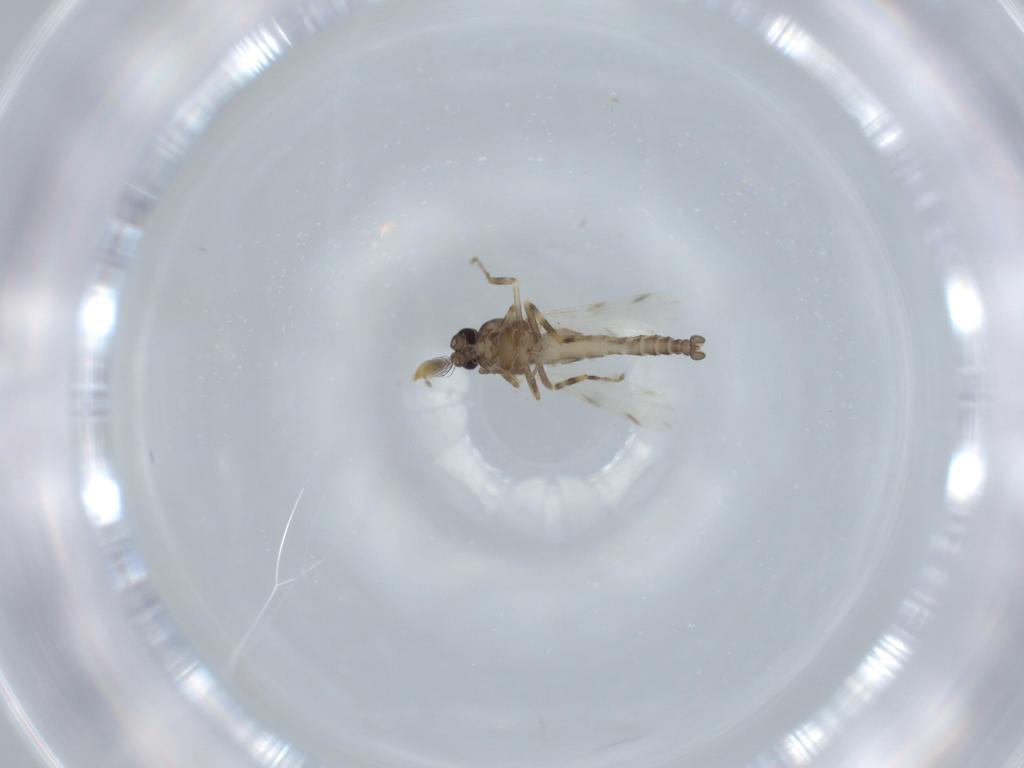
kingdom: Animalia
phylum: Arthropoda
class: Insecta
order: Diptera
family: Ceratopogonidae
